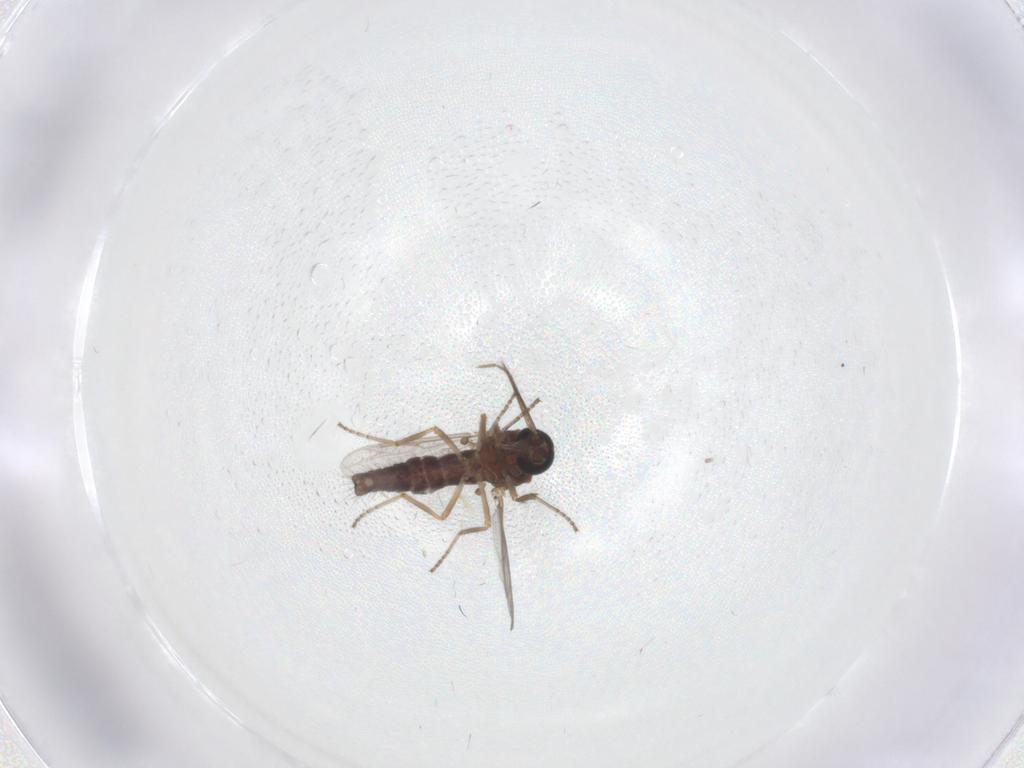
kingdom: Animalia
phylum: Arthropoda
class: Insecta
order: Diptera
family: Ceratopogonidae
